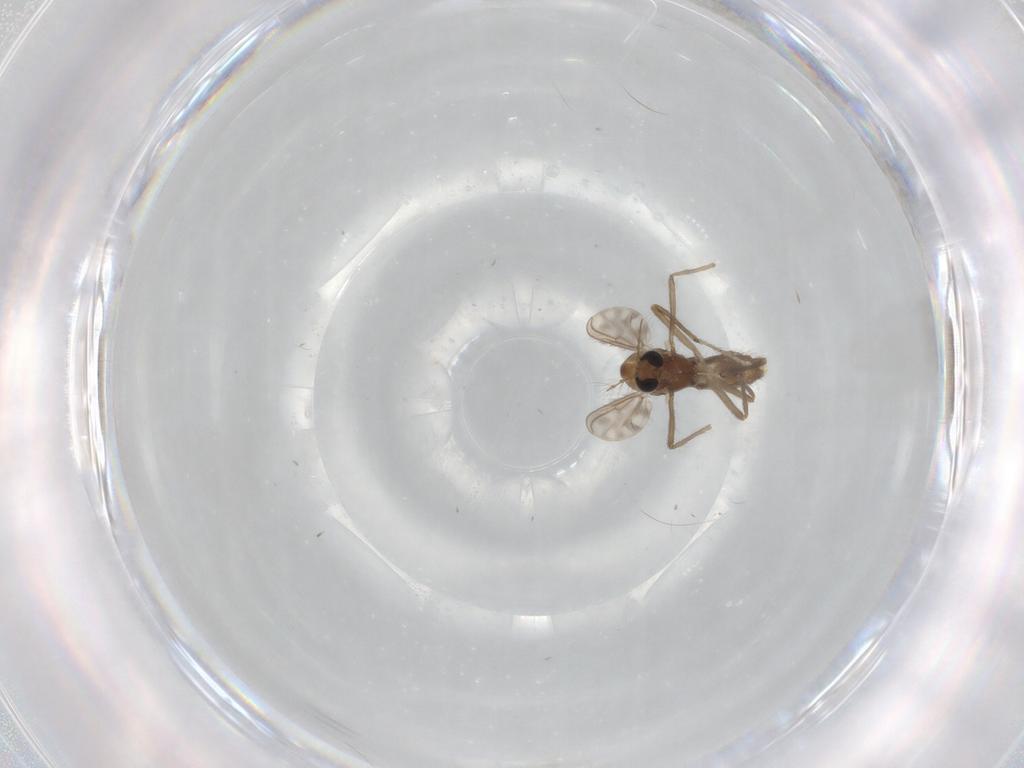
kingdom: Animalia
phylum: Arthropoda
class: Insecta
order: Diptera
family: Chironomidae
